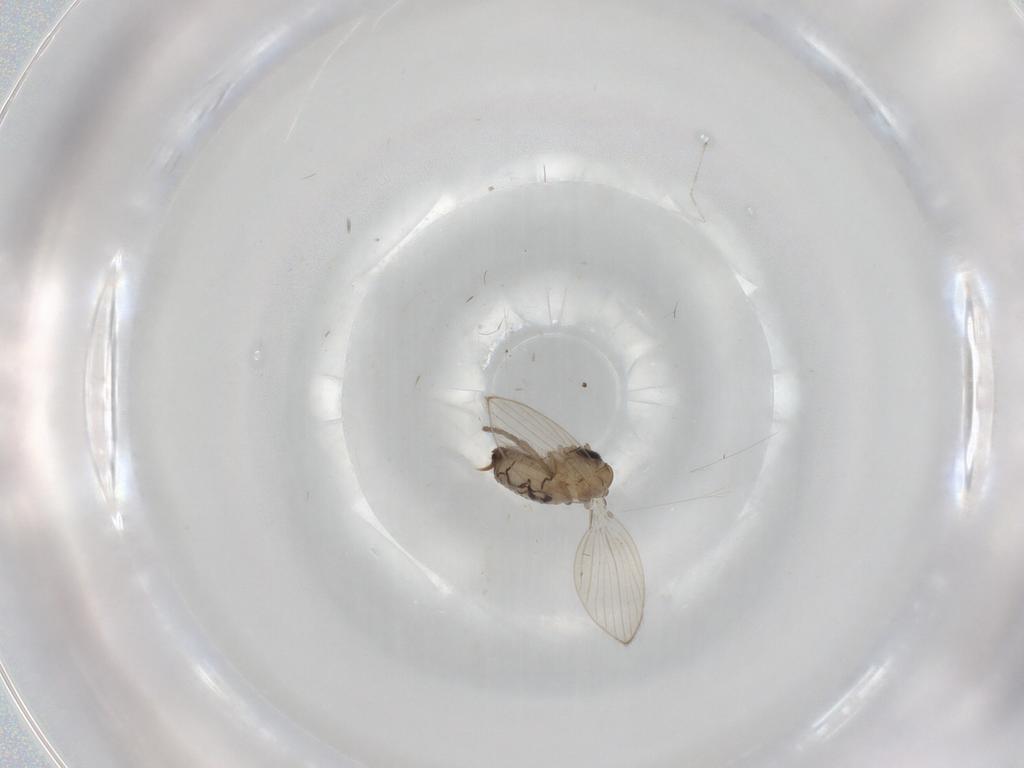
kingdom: Animalia
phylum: Arthropoda
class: Insecta
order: Diptera
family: Psychodidae
